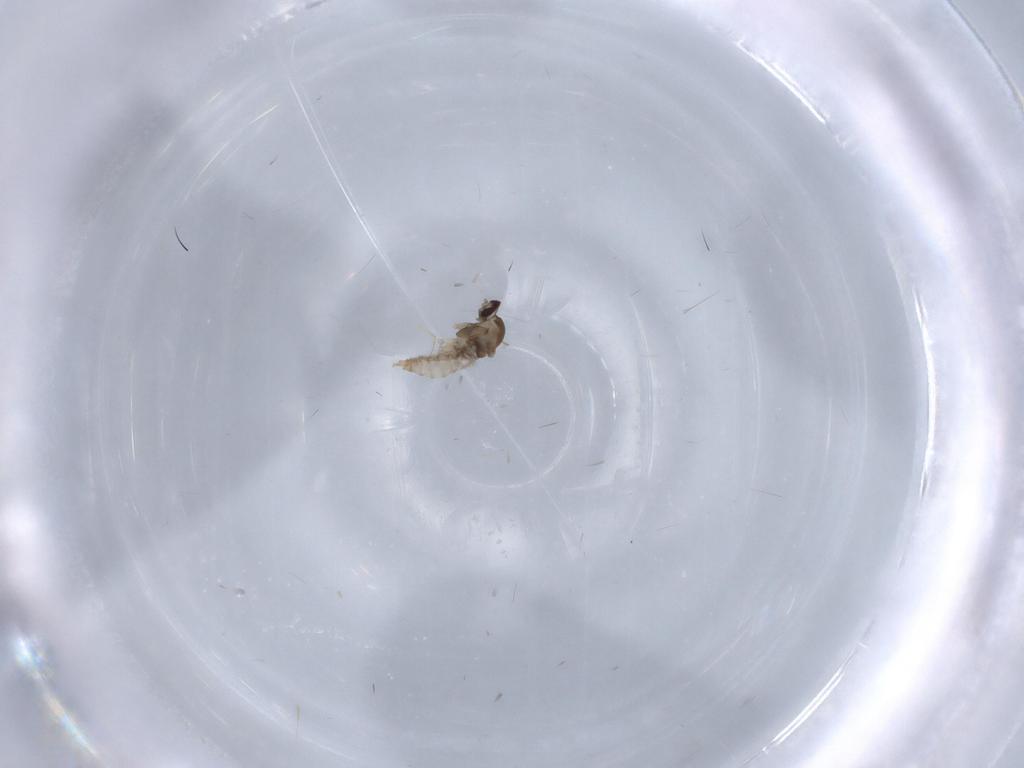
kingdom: Animalia
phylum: Arthropoda
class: Insecta
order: Diptera
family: Cecidomyiidae
